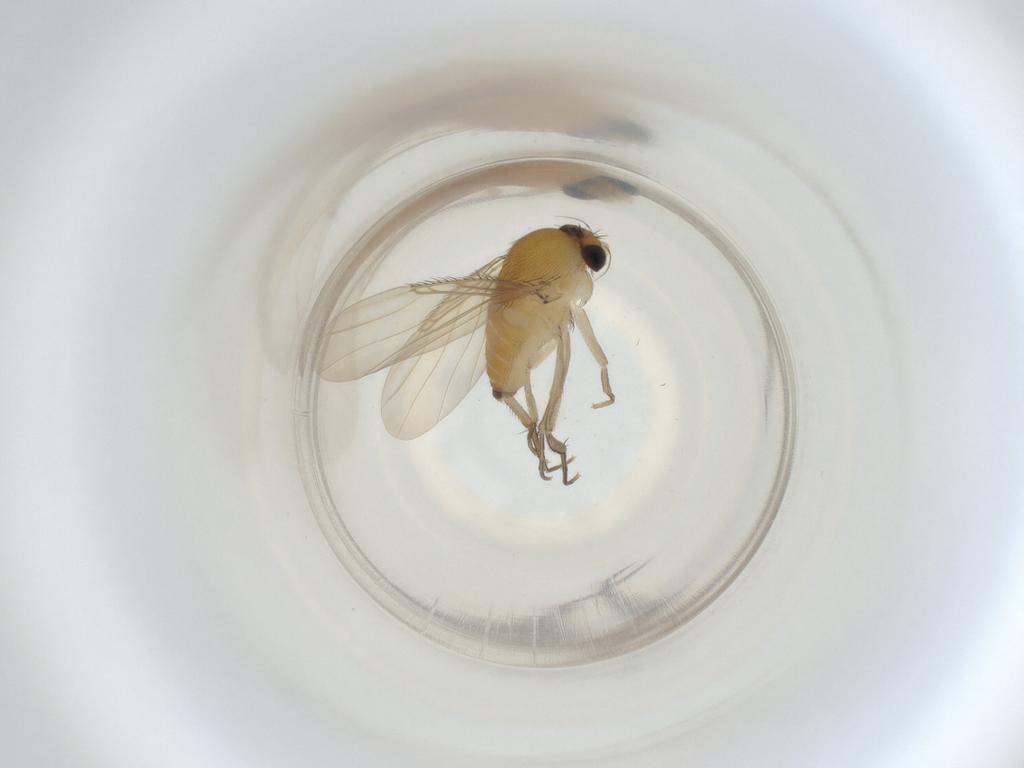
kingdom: Animalia
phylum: Arthropoda
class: Insecta
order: Diptera
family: Phoridae
